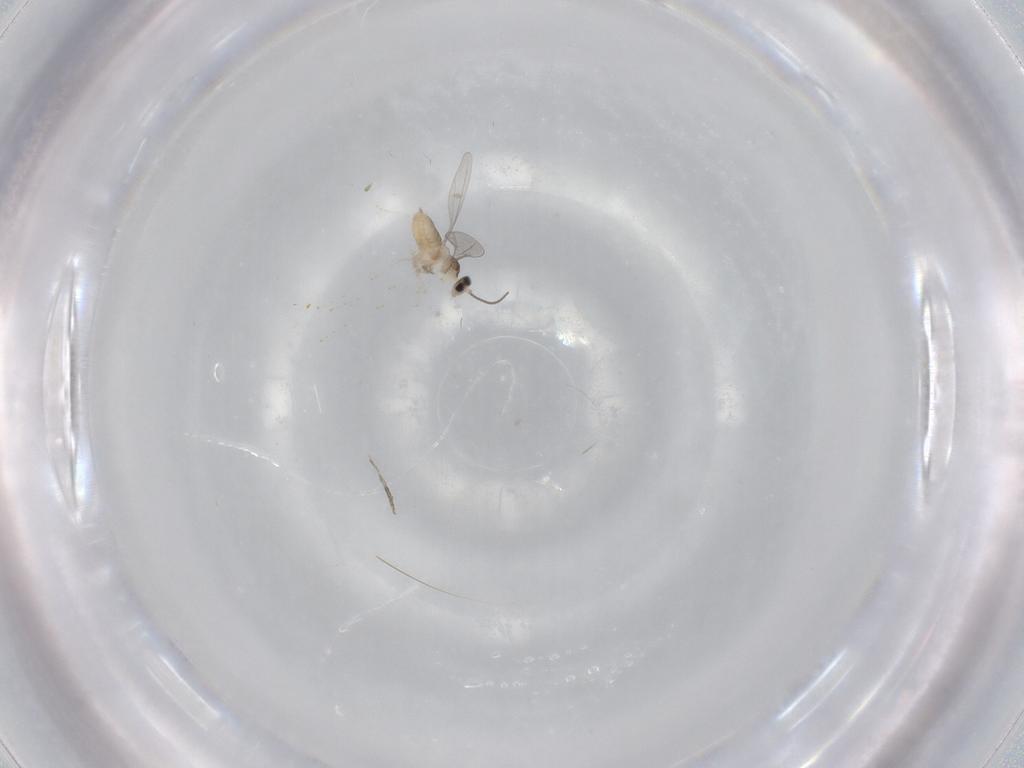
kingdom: Animalia
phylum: Arthropoda
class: Insecta
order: Diptera
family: Cecidomyiidae
